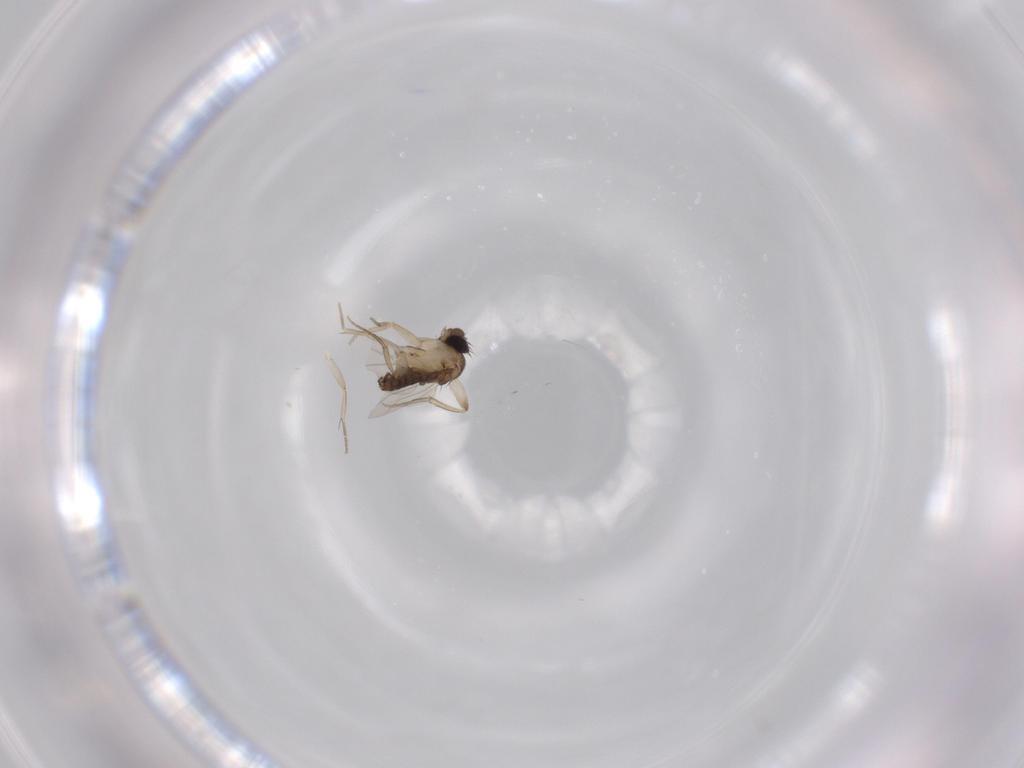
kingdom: Animalia
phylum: Arthropoda
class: Insecta
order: Diptera
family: Phoridae
